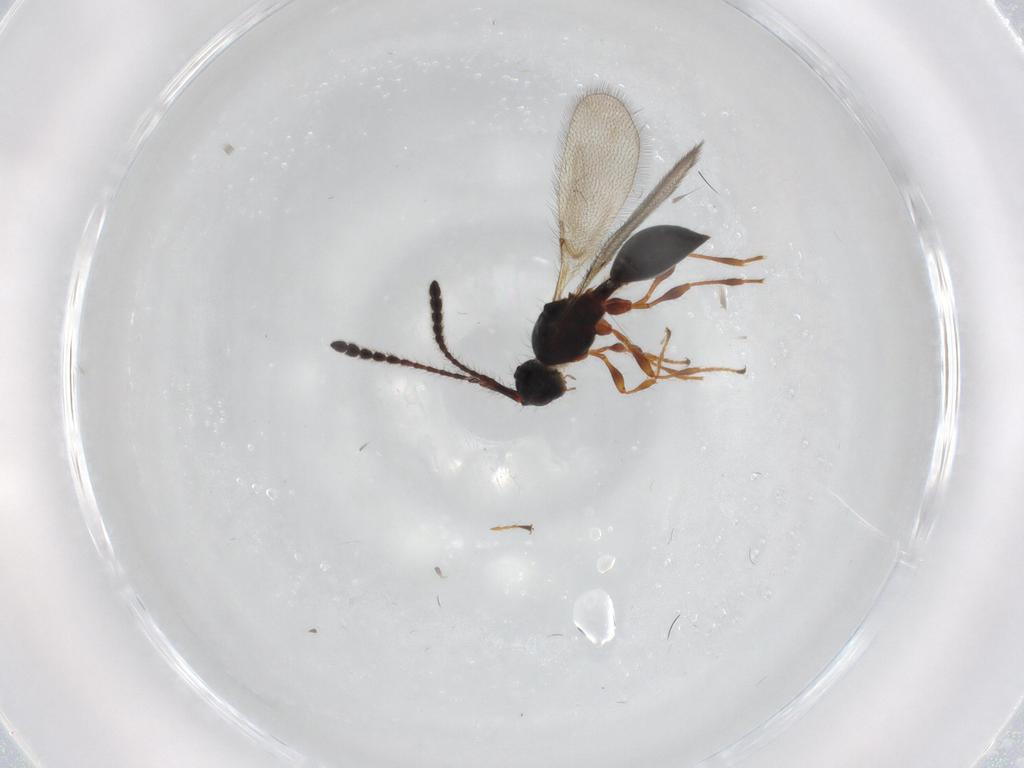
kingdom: Animalia
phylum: Arthropoda
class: Insecta
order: Hymenoptera
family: Diapriidae
